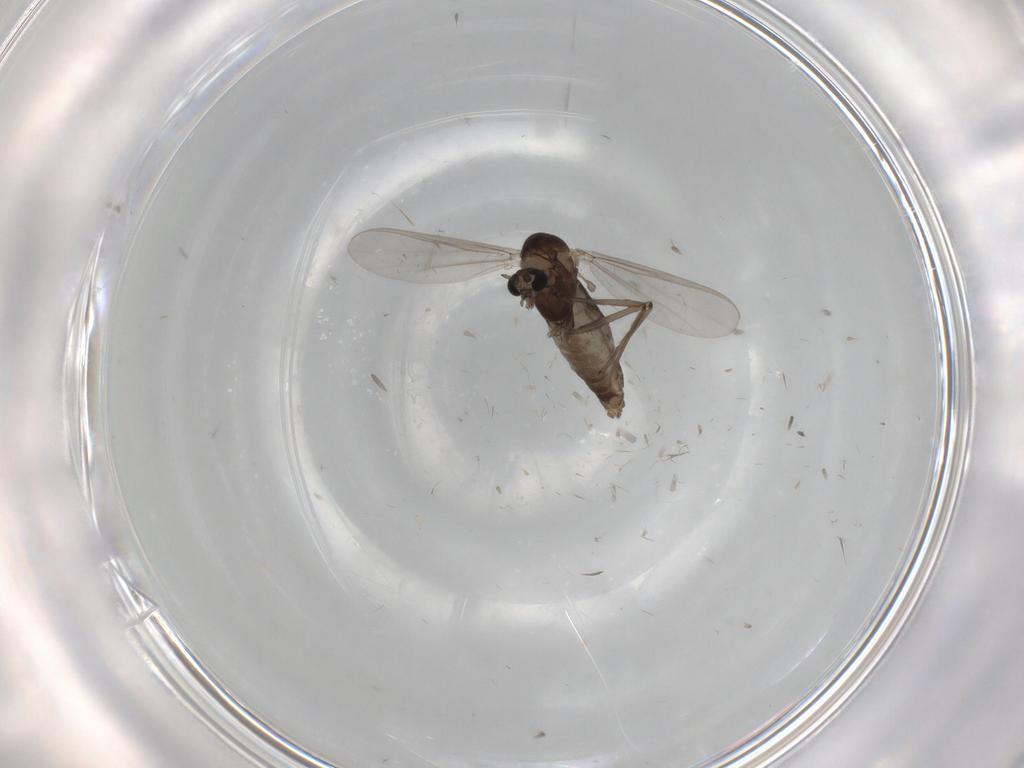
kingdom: Animalia
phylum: Arthropoda
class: Insecta
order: Diptera
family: Chironomidae
